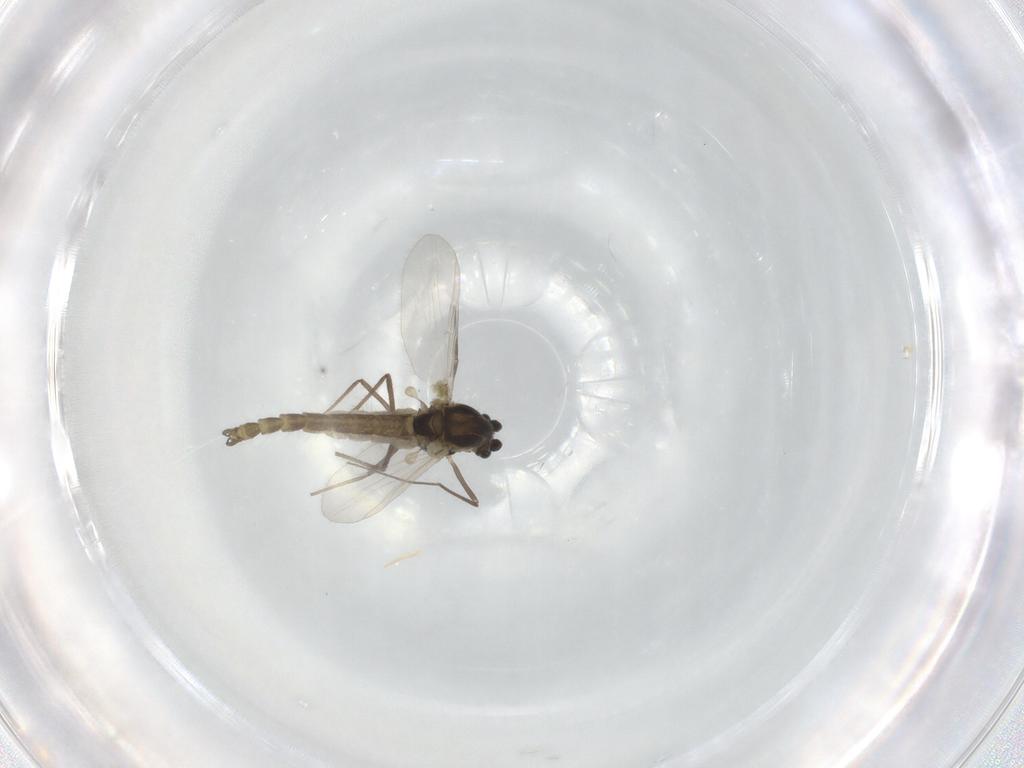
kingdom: Animalia
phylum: Arthropoda
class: Insecta
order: Diptera
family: Chironomidae
